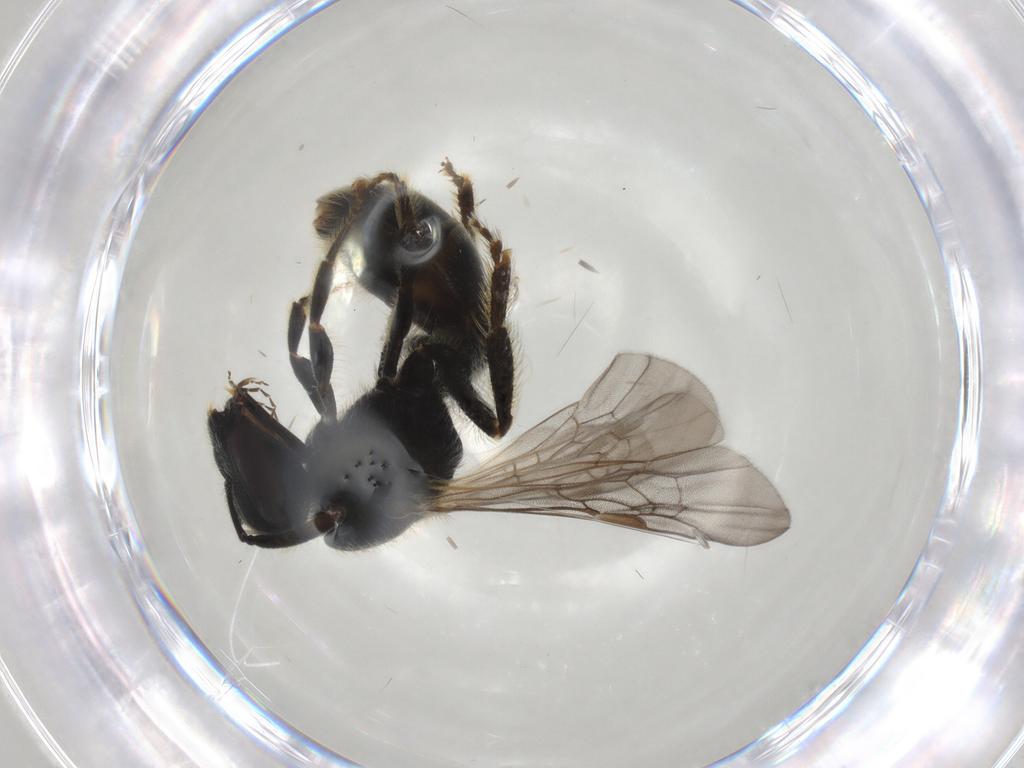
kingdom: Animalia
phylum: Arthropoda
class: Insecta
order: Hymenoptera
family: Halictidae
